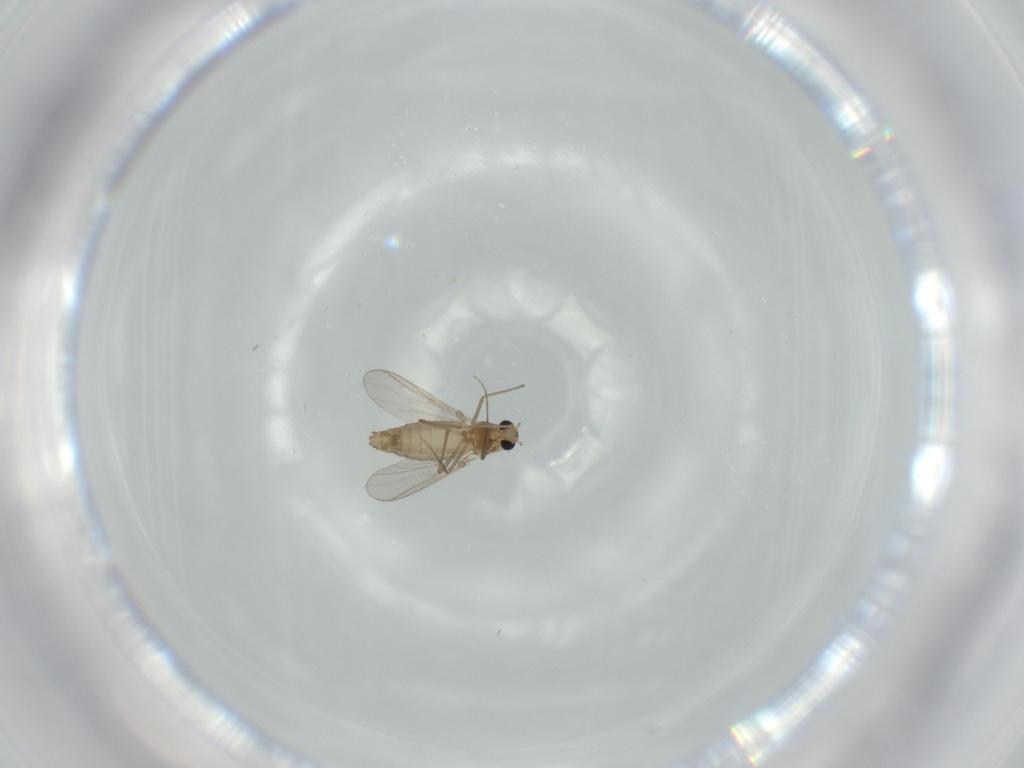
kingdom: Animalia
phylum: Arthropoda
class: Insecta
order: Diptera
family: Chironomidae
